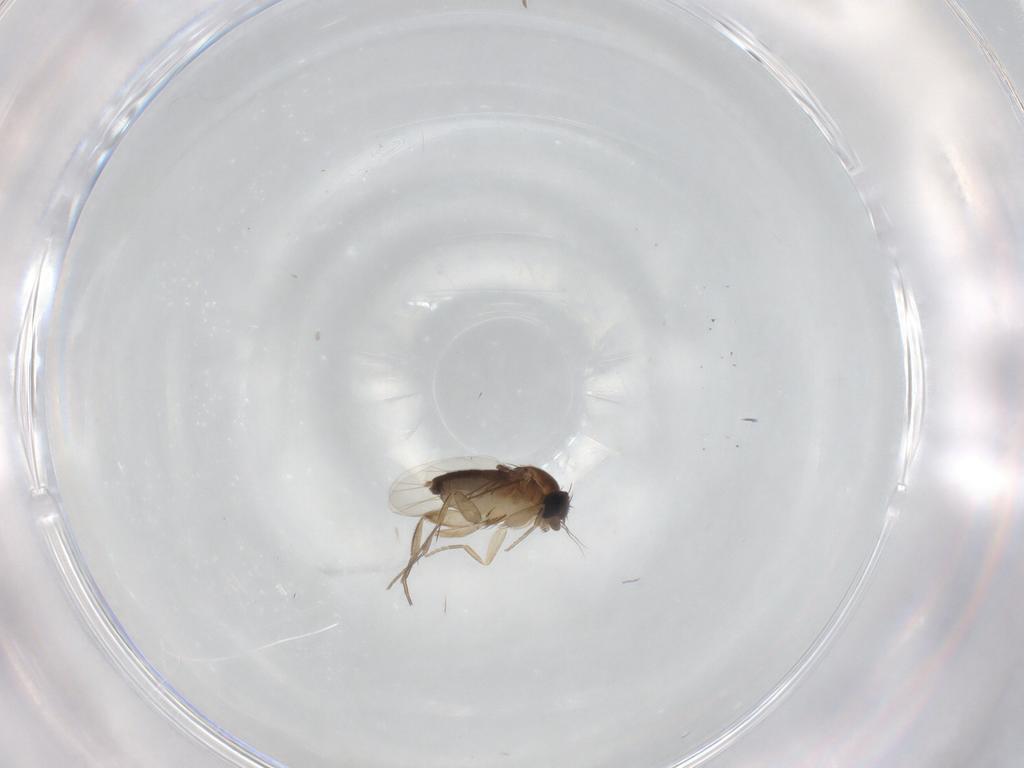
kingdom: Animalia
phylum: Arthropoda
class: Insecta
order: Diptera
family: Phoridae
